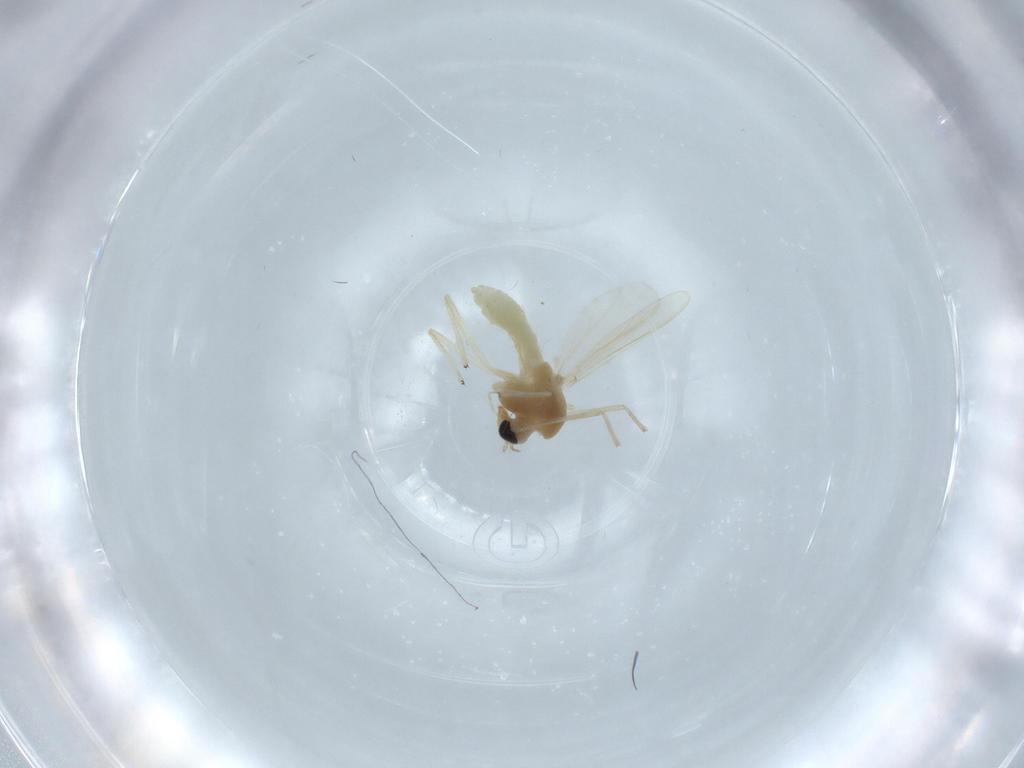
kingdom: Animalia
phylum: Arthropoda
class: Insecta
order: Diptera
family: Chironomidae
